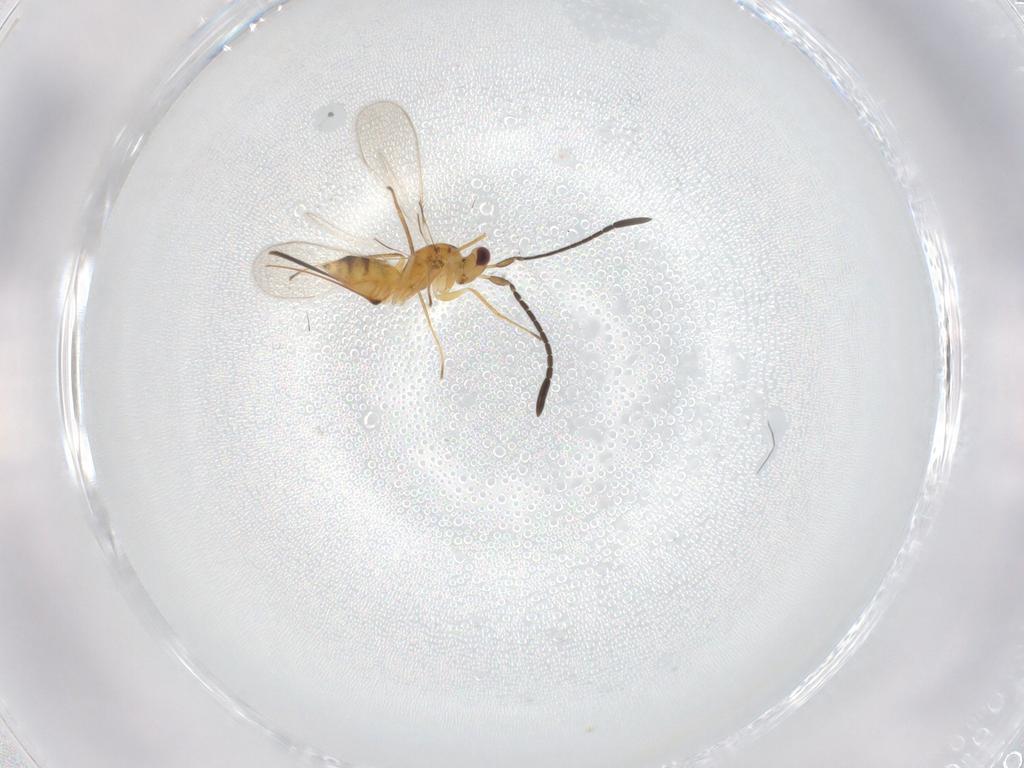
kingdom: Animalia
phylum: Arthropoda
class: Insecta
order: Hymenoptera
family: Mymaridae
